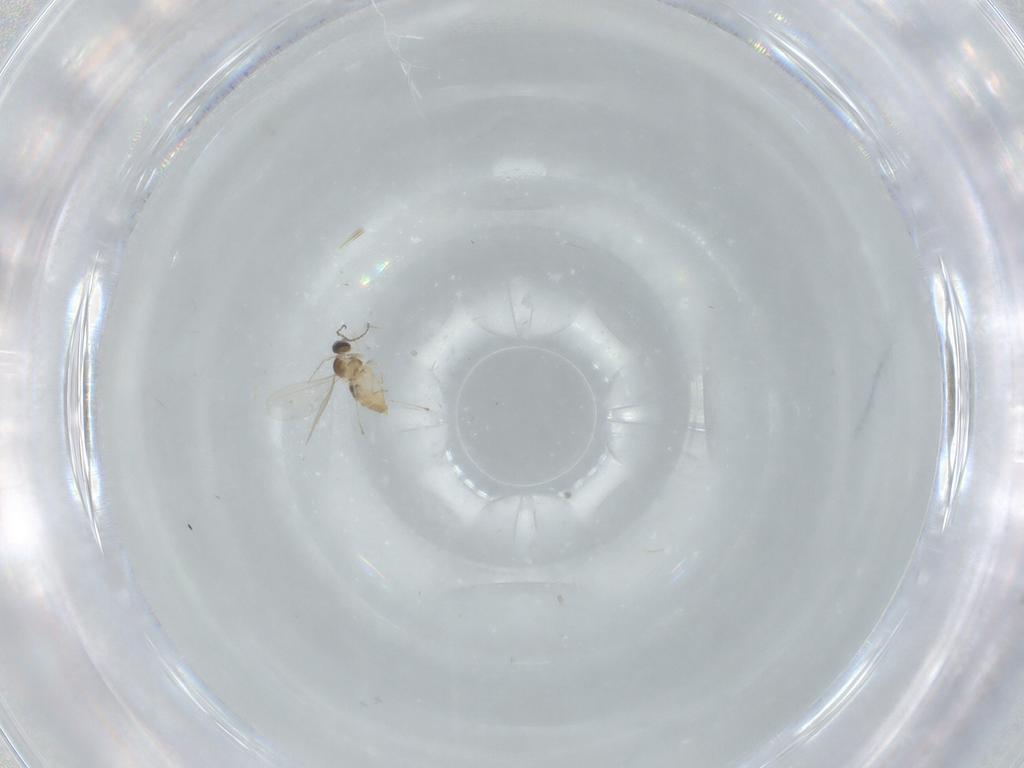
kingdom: Animalia
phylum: Arthropoda
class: Insecta
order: Diptera
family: Cecidomyiidae
